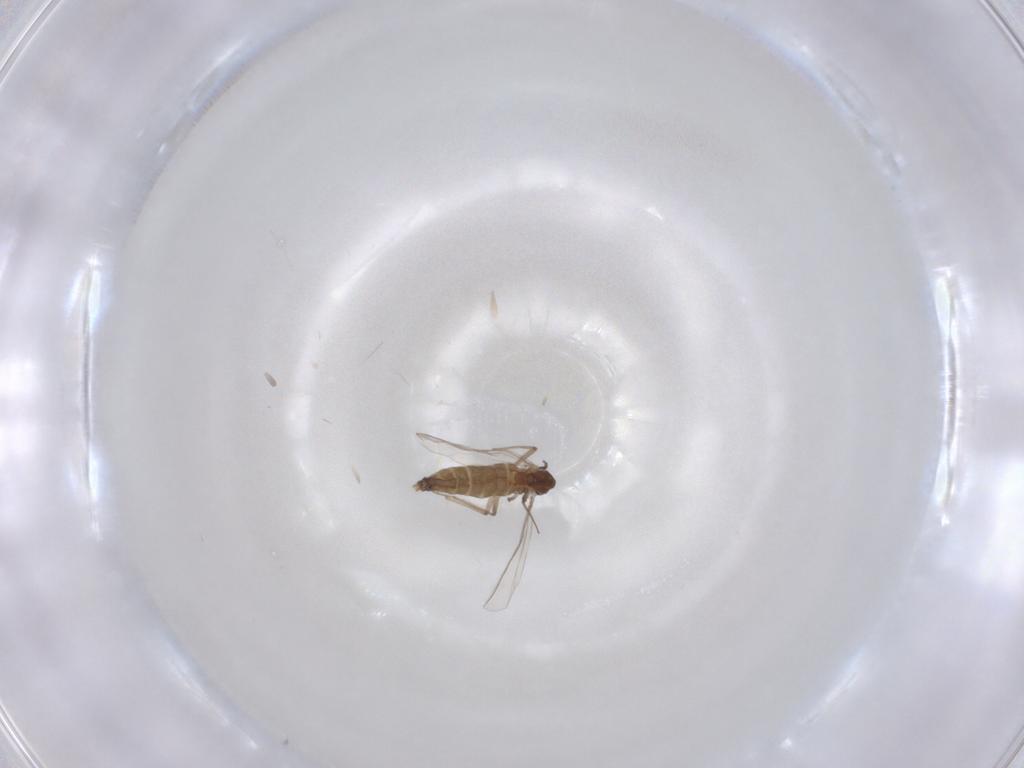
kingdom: Animalia
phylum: Arthropoda
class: Insecta
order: Diptera
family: Chironomidae
